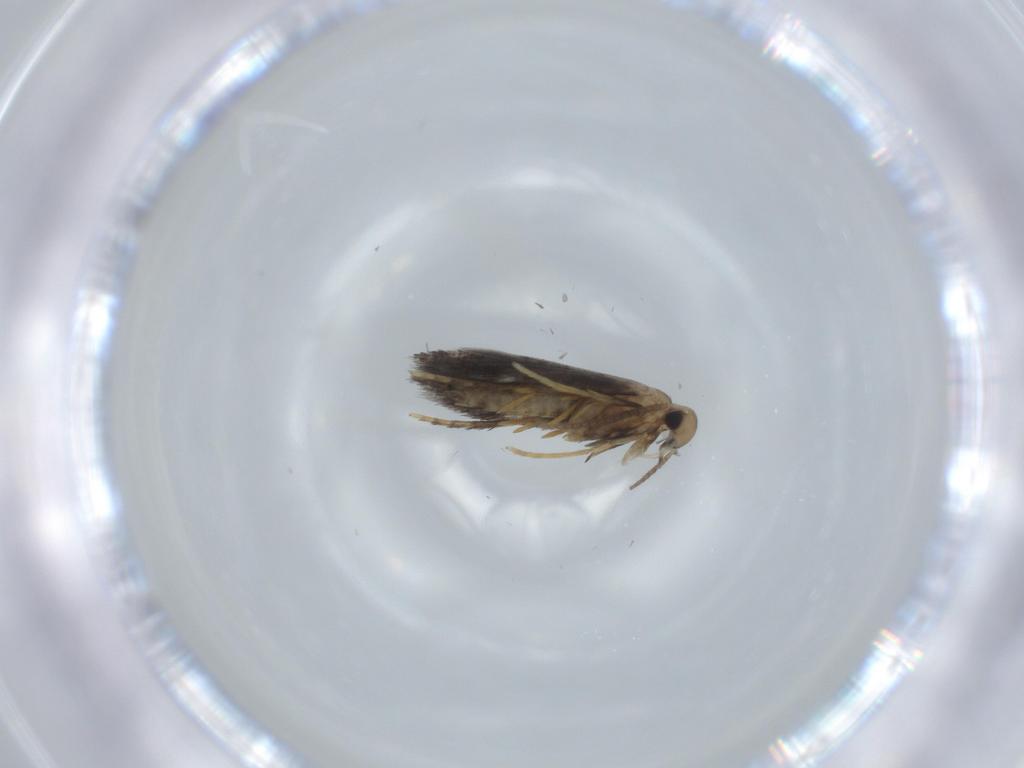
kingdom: Animalia
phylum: Arthropoda
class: Insecta
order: Lepidoptera
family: Heliozelidae
